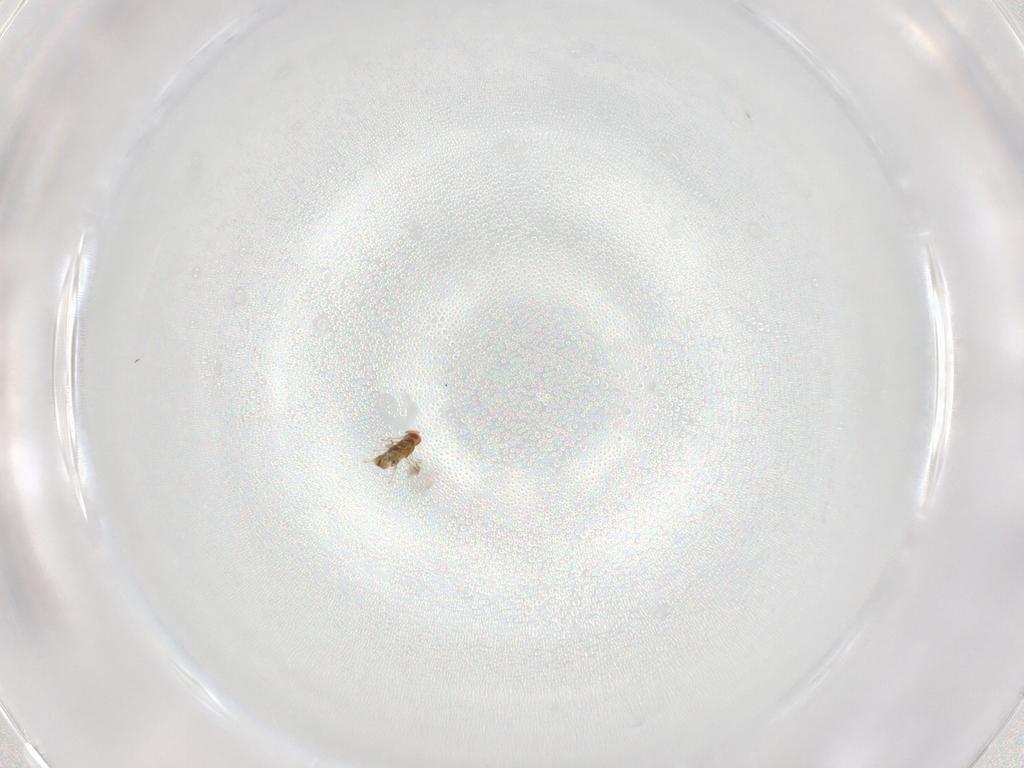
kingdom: Animalia
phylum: Arthropoda
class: Insecta
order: Hymenoptera
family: Trichogrammatidae
